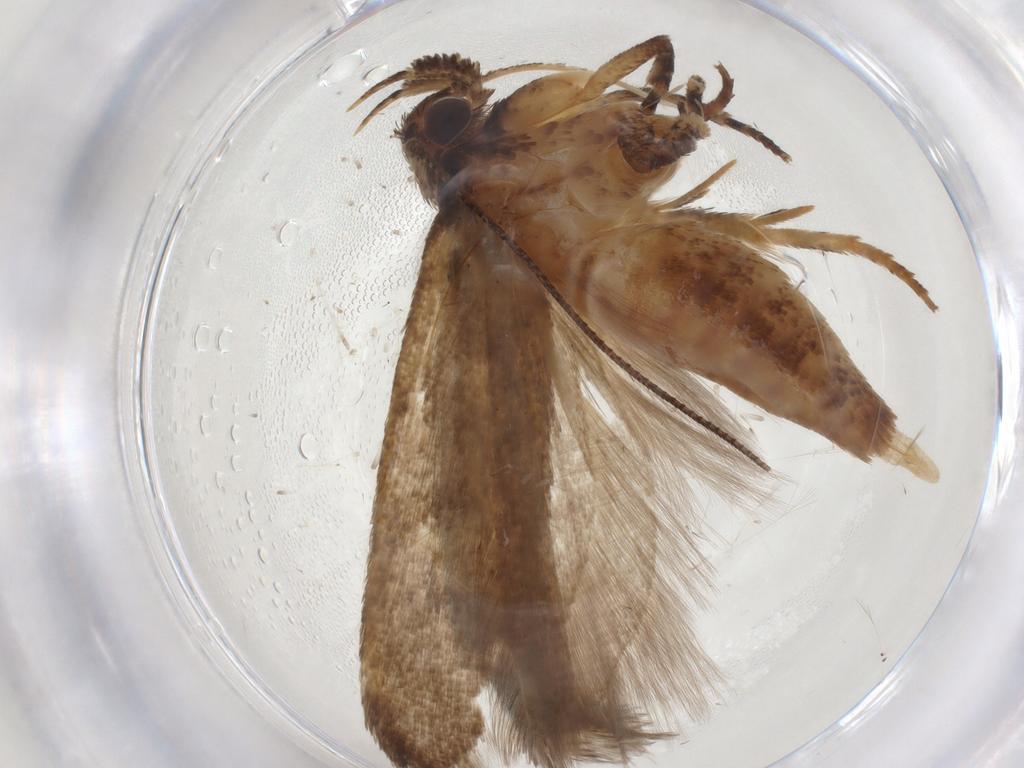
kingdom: Animalia
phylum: Arthropoda
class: Insecta
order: Lepidoptera
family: Gelechiidae
